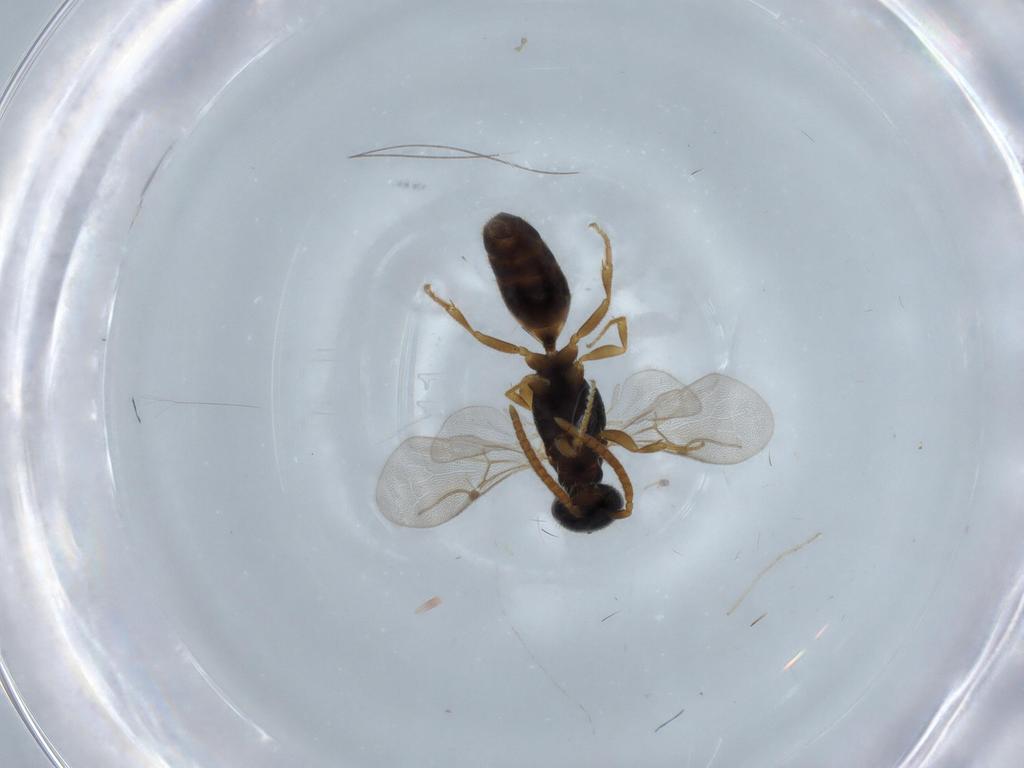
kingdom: Animalia
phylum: Arthropoda
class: Insecta
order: Hymenoptera
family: Bethylidae
